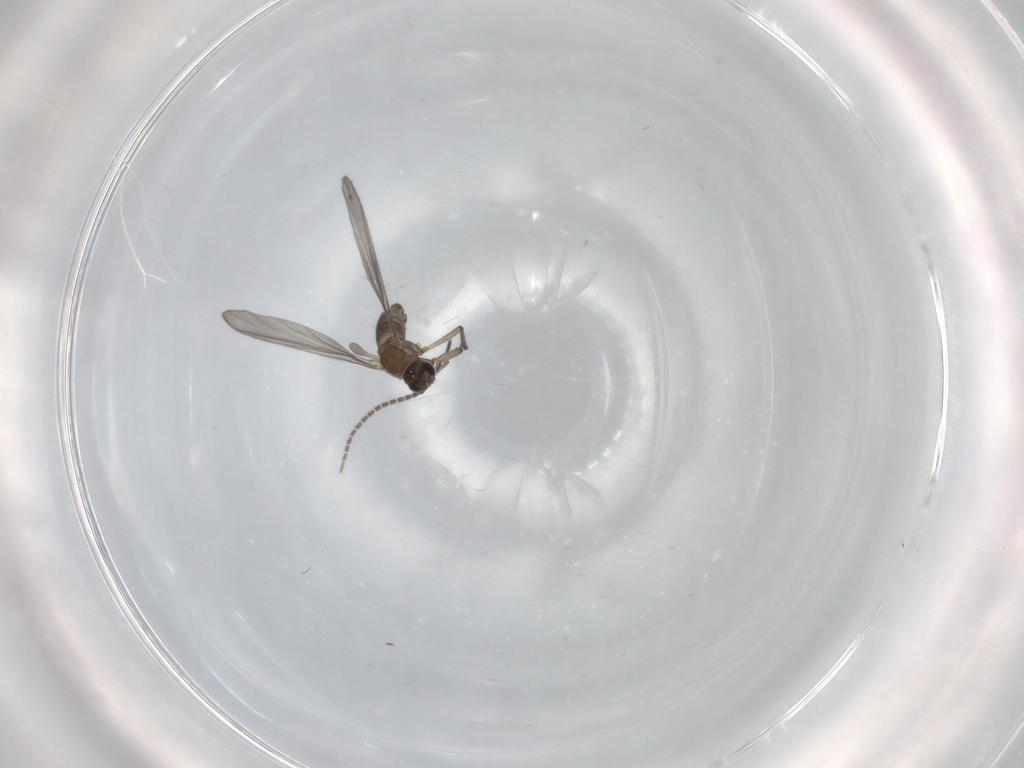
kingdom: Animalia
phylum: Arthropoda
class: Insecta
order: Diptera
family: Sciaridae
